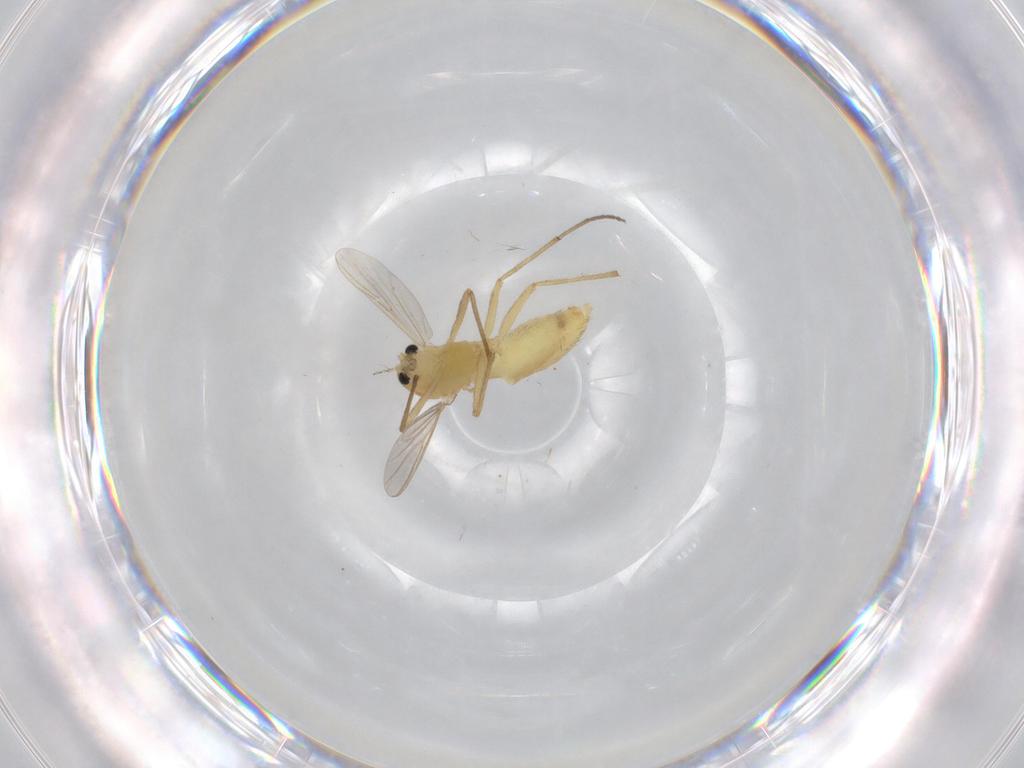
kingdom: Animalia
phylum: Arthropoda
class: Insecta
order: Diptera
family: Chironomidae
